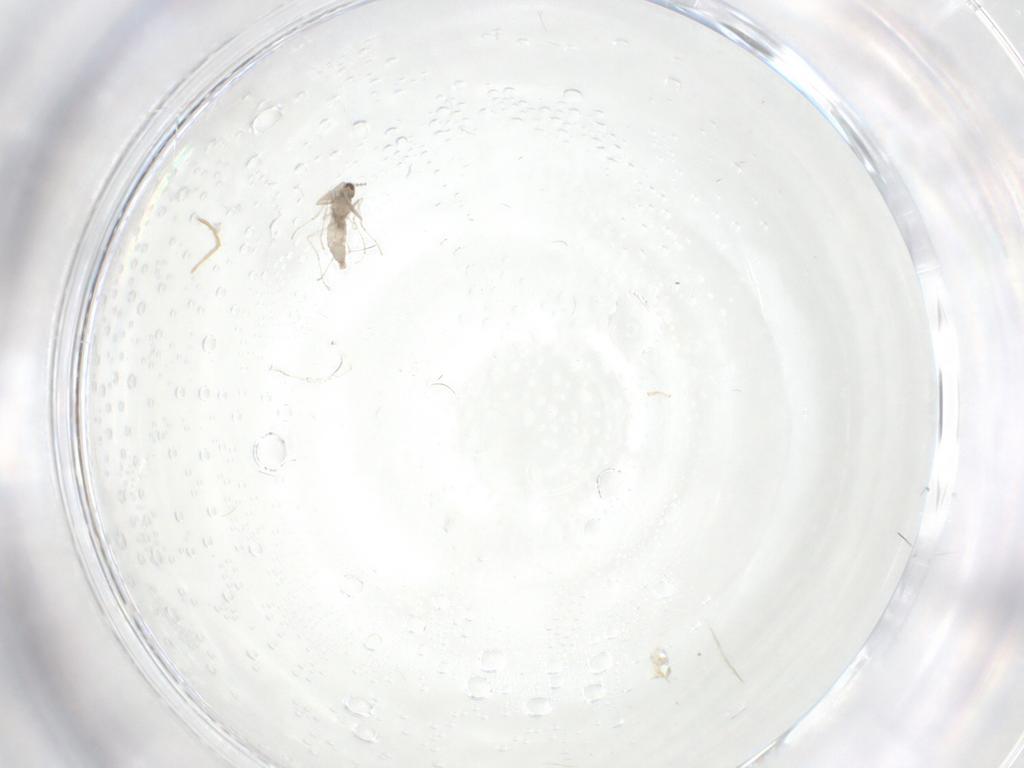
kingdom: Animalia
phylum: Arthropoda
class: Insecta
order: Diptera
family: Cecidomyiidae
